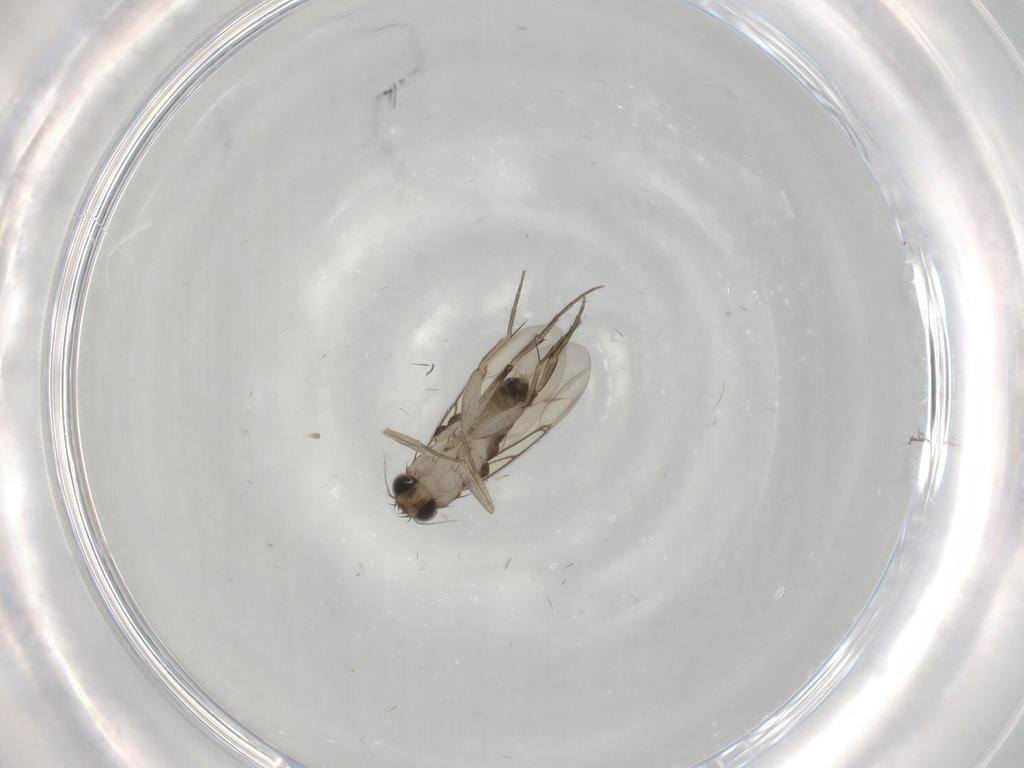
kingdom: Animalia
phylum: Arthropoda
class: Insecta
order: Diptera
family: Phoridae
